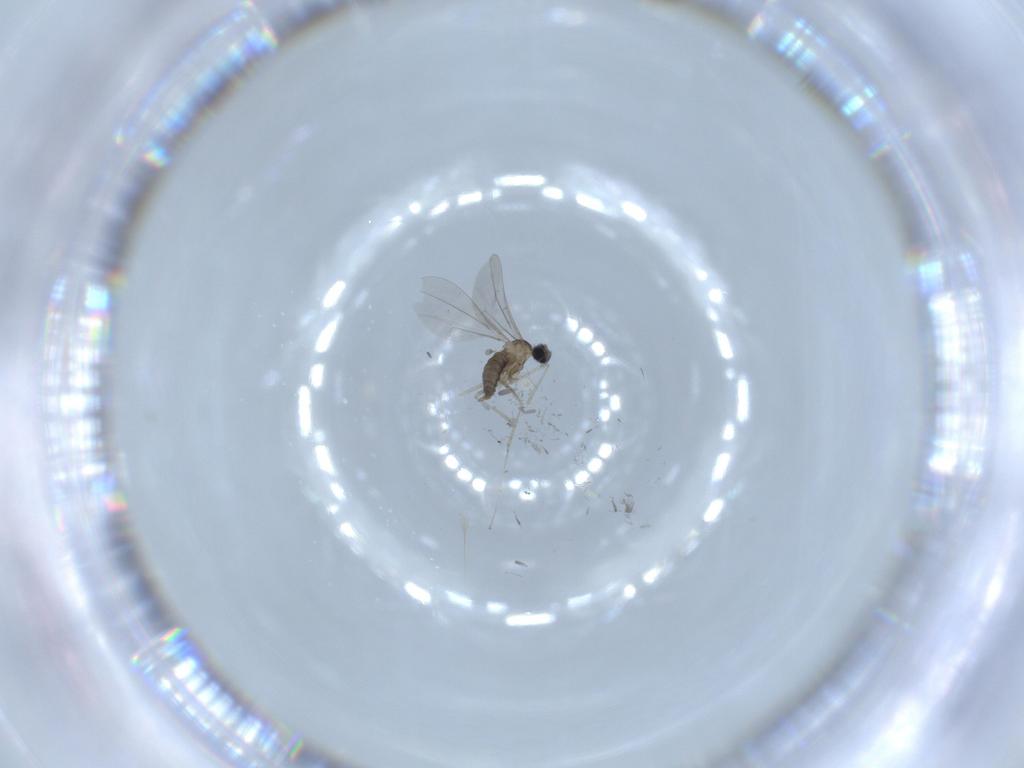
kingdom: Animalia
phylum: Arthropoda
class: Insecta
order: Diptera
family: Cecidomyiidae
